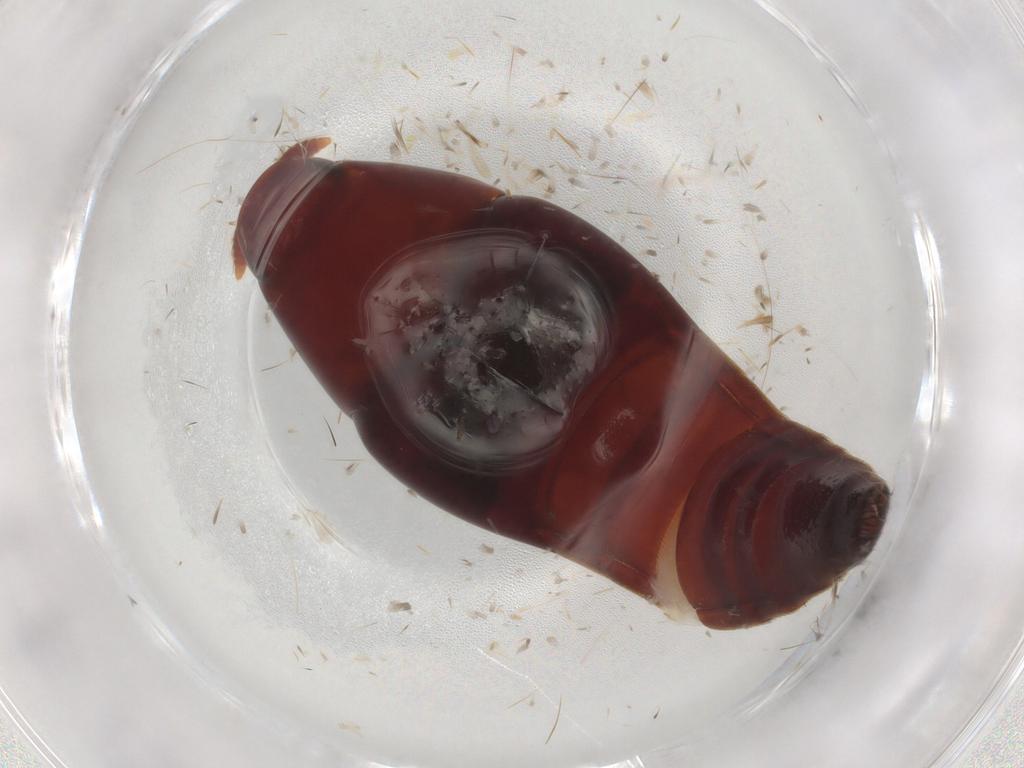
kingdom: Animalia
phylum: Arthropoda
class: Insecta
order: Coleoptera
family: Staphylinidae
